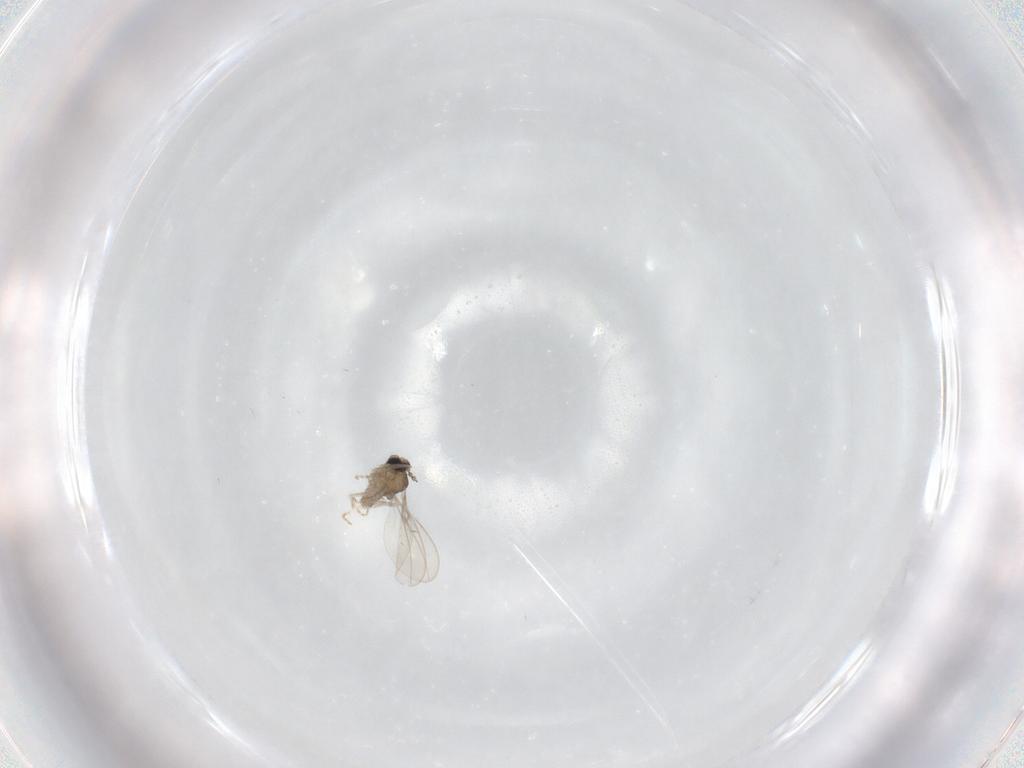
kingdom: Animalia
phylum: Arthropoda
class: Insecta
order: Diptera
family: Cecidomyiidae
